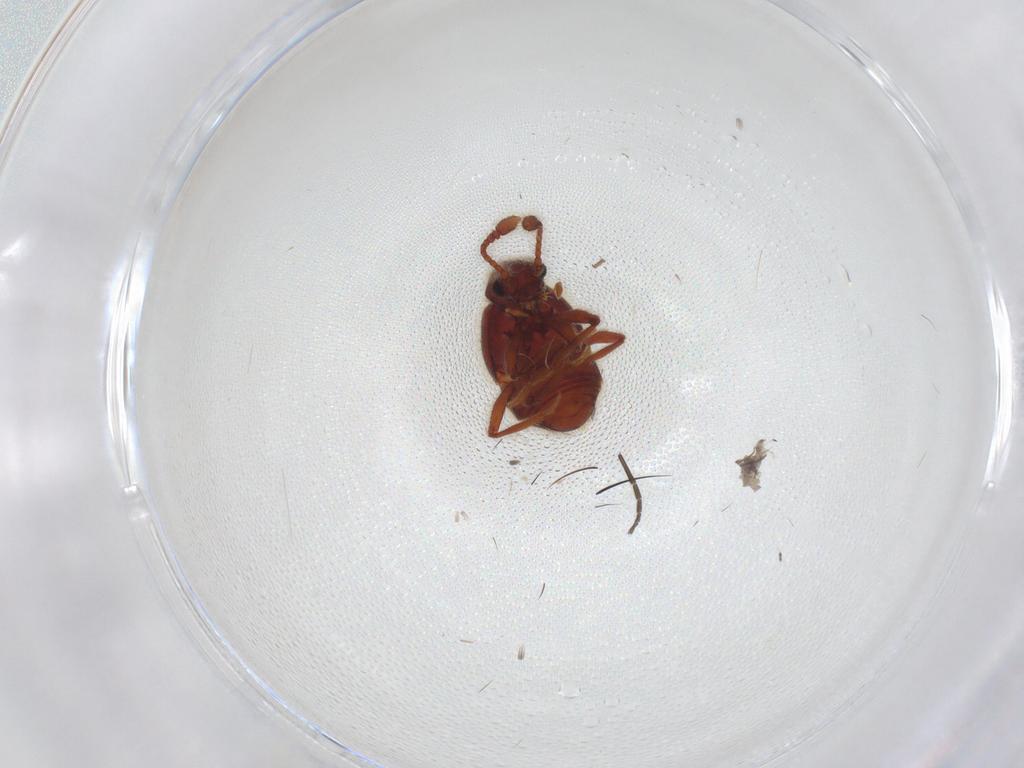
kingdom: Animalia
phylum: Arthropoda
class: Insecta
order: Coleoptera
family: Staphylinidae
